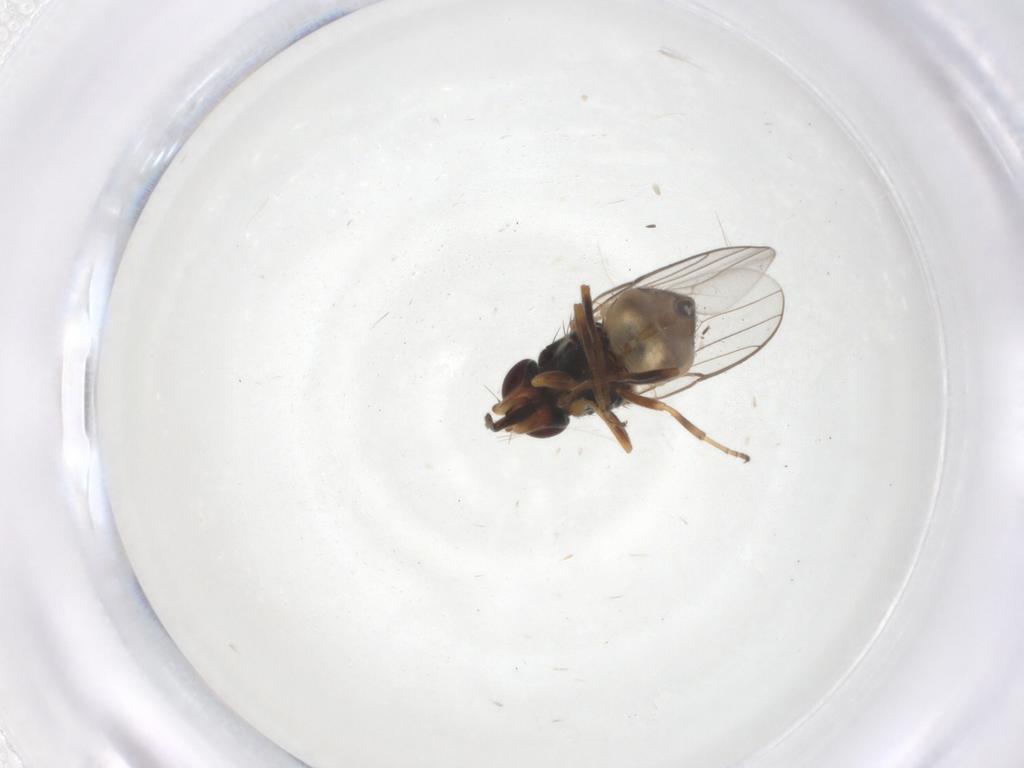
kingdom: Animalia
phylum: Arthropoda
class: Insecta
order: Diptera
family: Chloropidae
